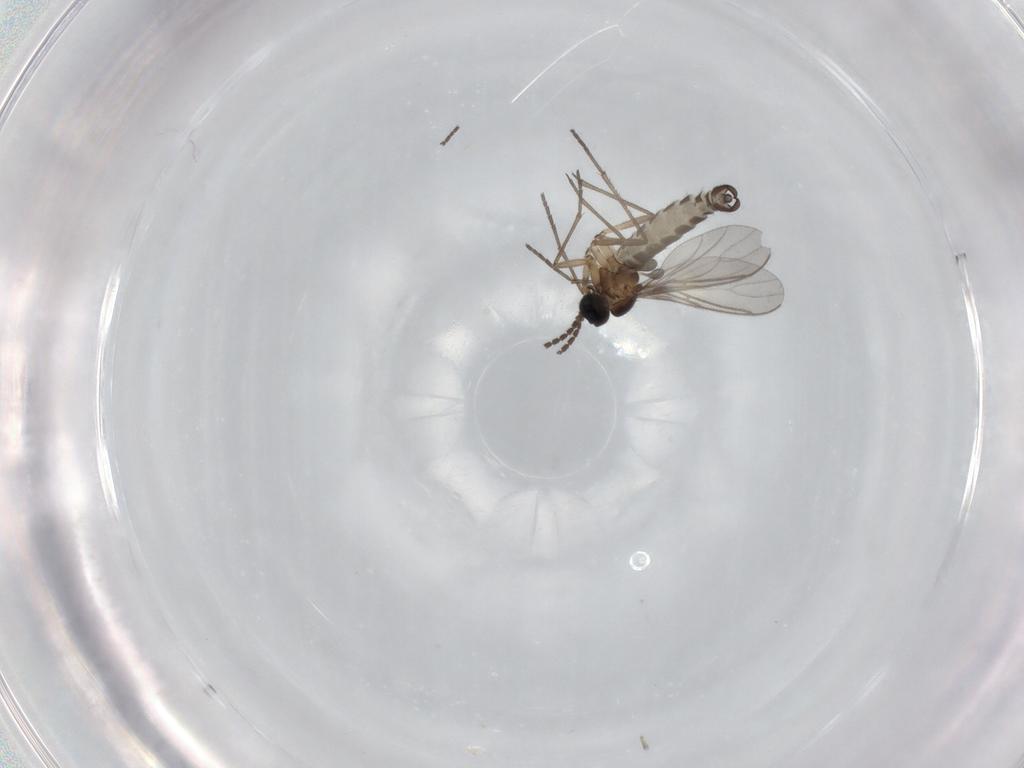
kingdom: Animalia
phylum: Arthropoda
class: Insecta
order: Diptera
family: Sciaridae
